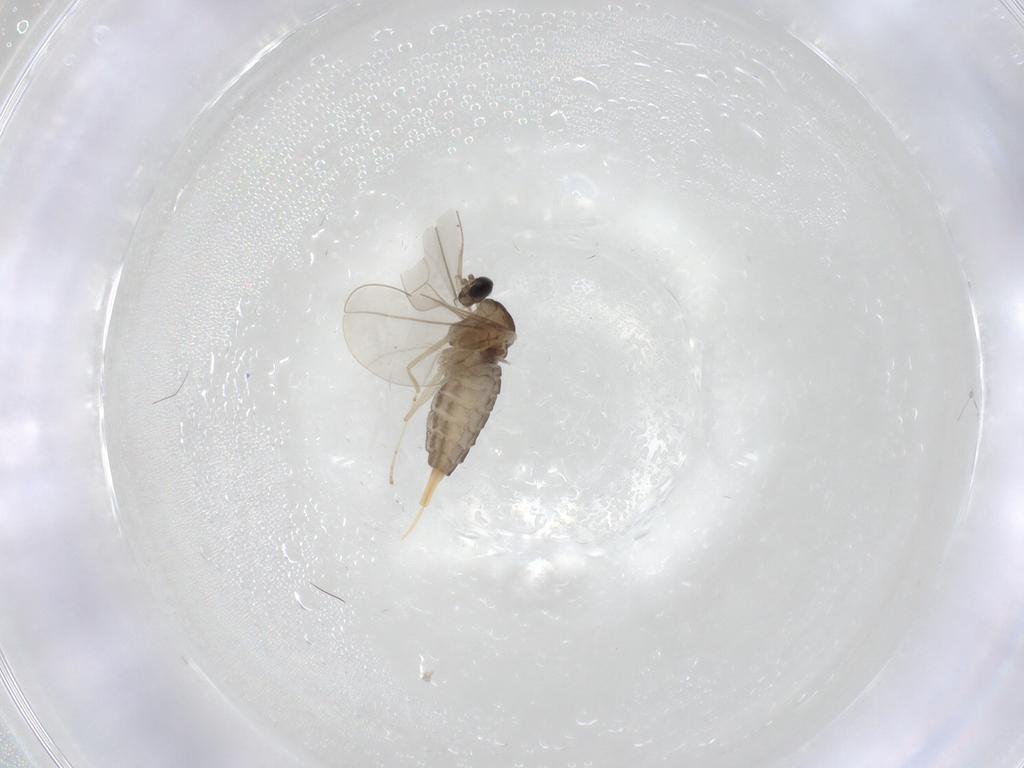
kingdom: Animalia
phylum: Arthropoda
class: Insecta
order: Diptera
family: Cecidomyiidae
